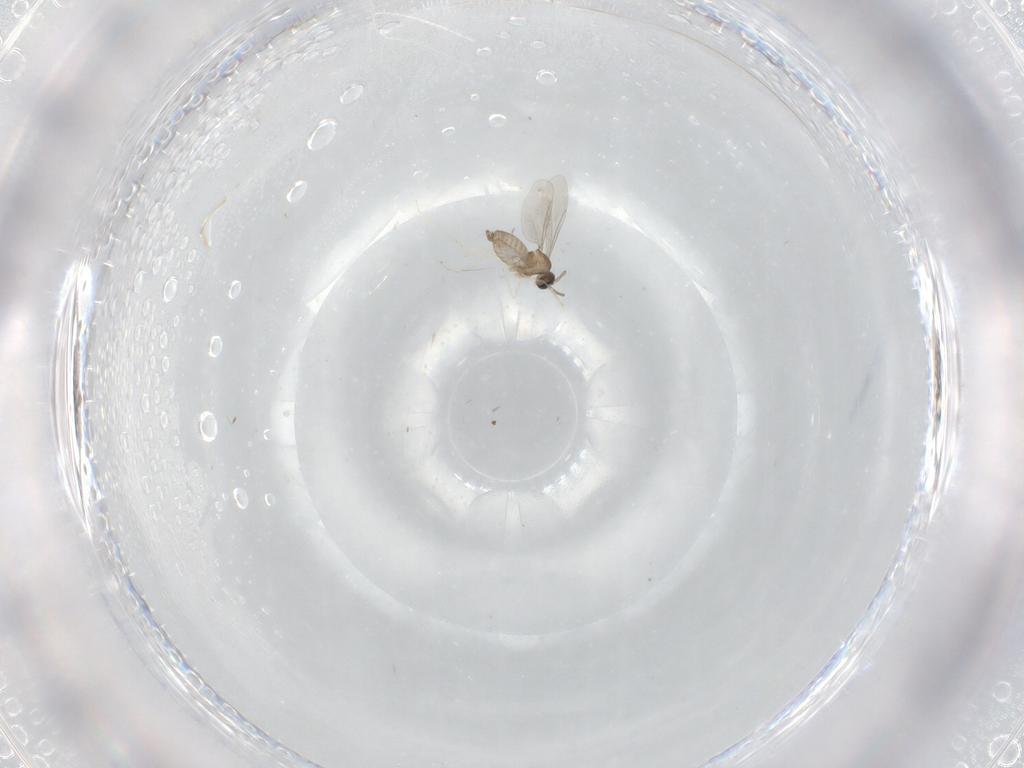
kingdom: Animalia
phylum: Arthropoda
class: Insecta
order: Diptera
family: Chironomidae
